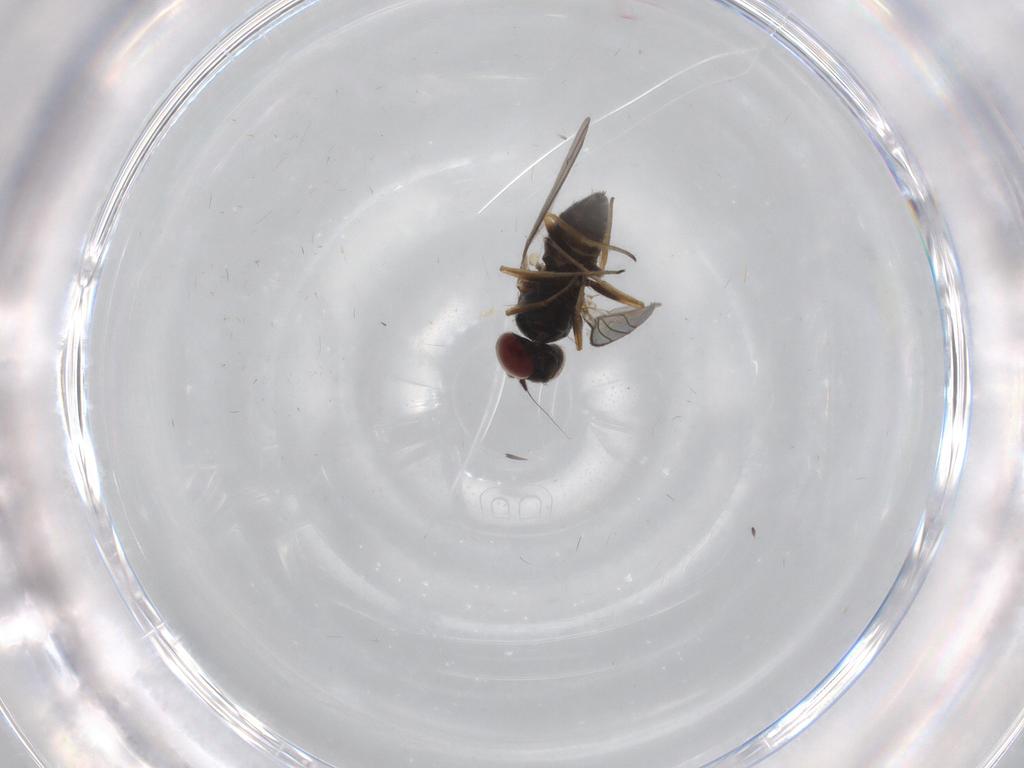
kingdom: Animalia
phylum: Arthropoda
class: Insecta
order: Diptera
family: Dolichopodidae
